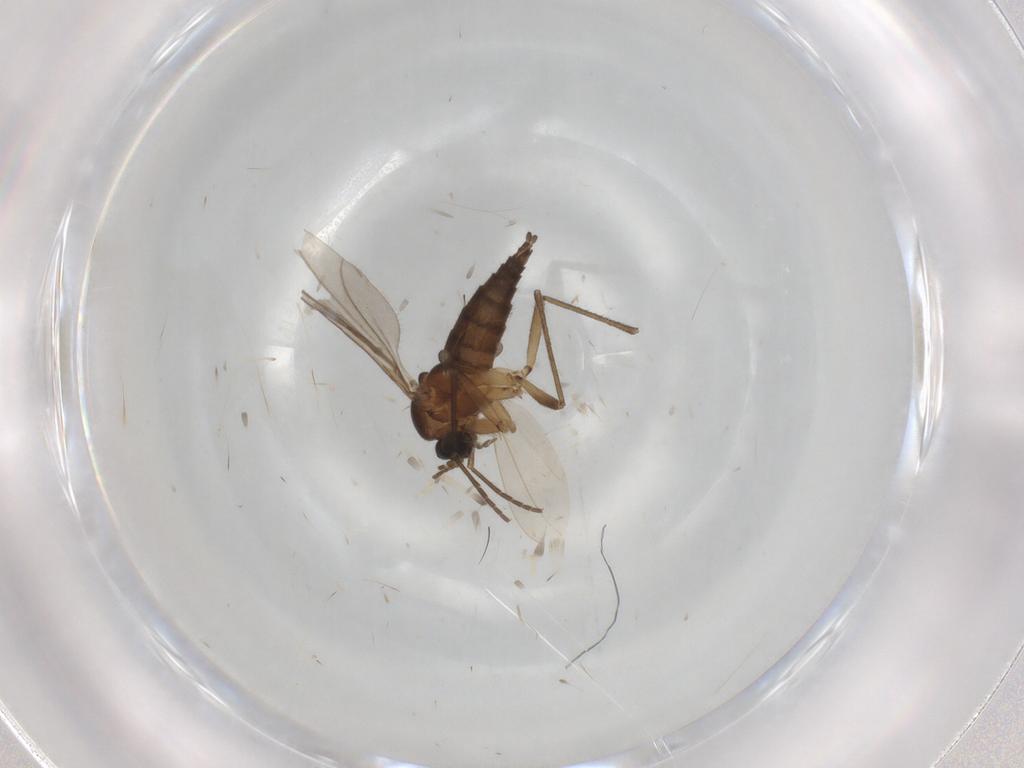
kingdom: Animalia
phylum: Arthropoda
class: Insecta
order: Diptera
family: Sciaridae
